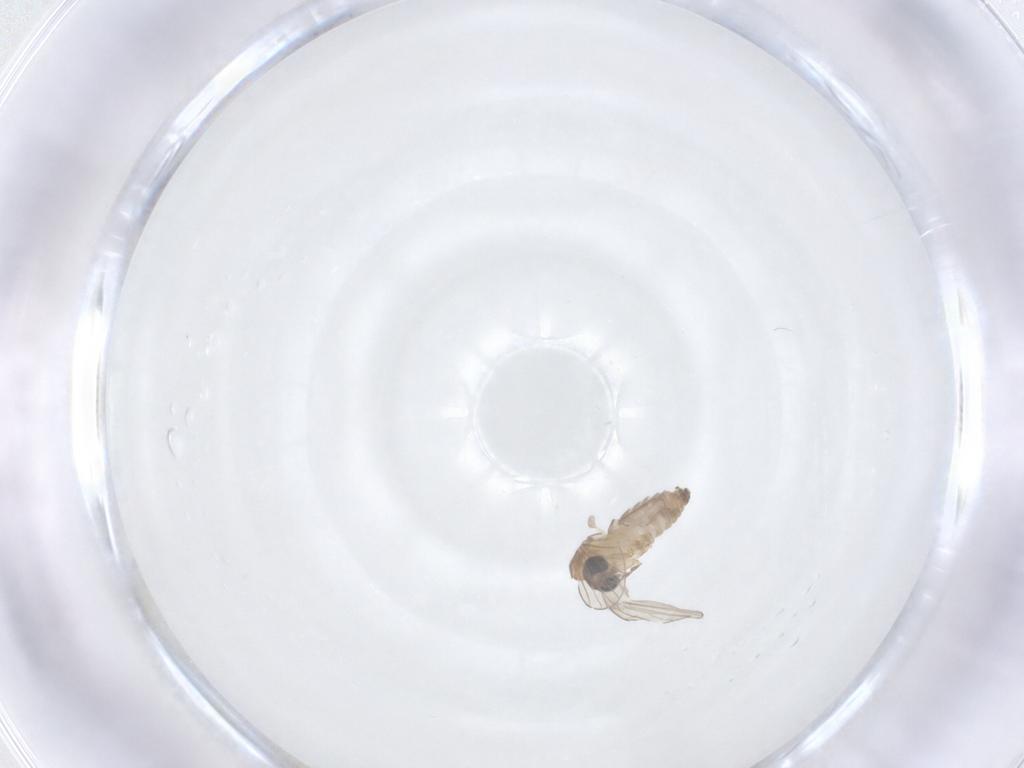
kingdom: Animalia
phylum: Arthropoda
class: Insecta
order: Diptera
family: Psychodidae
